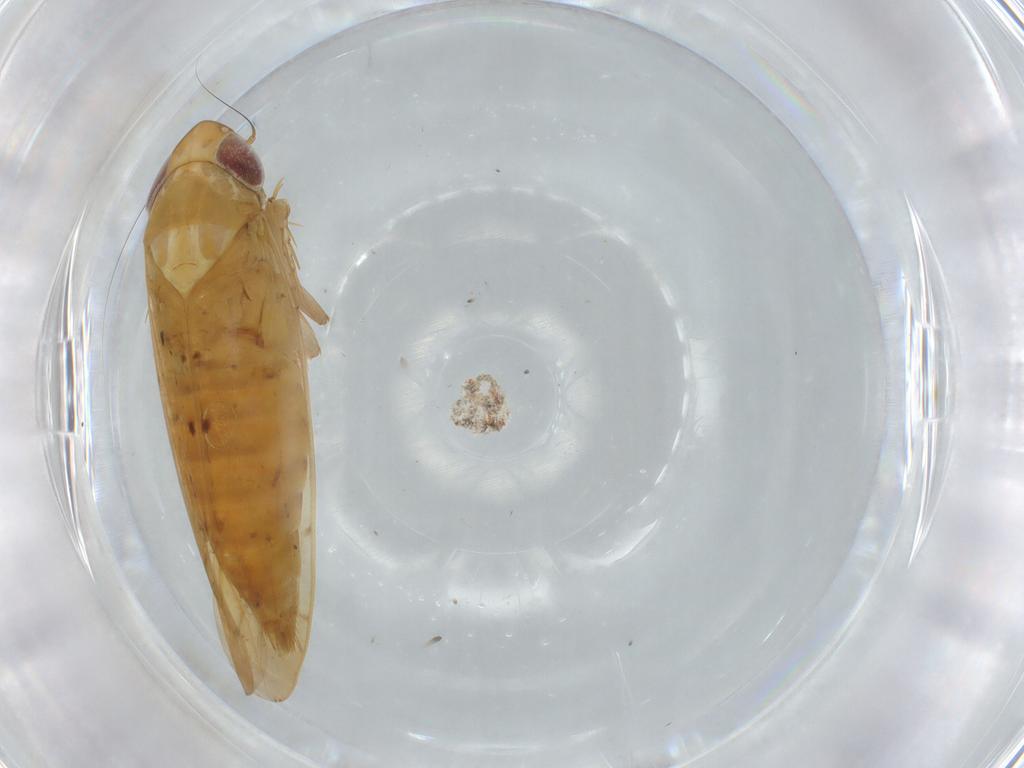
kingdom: Animalia
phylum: Arthropoda
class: Insecta
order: Hemiptera
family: Cicadellidae
